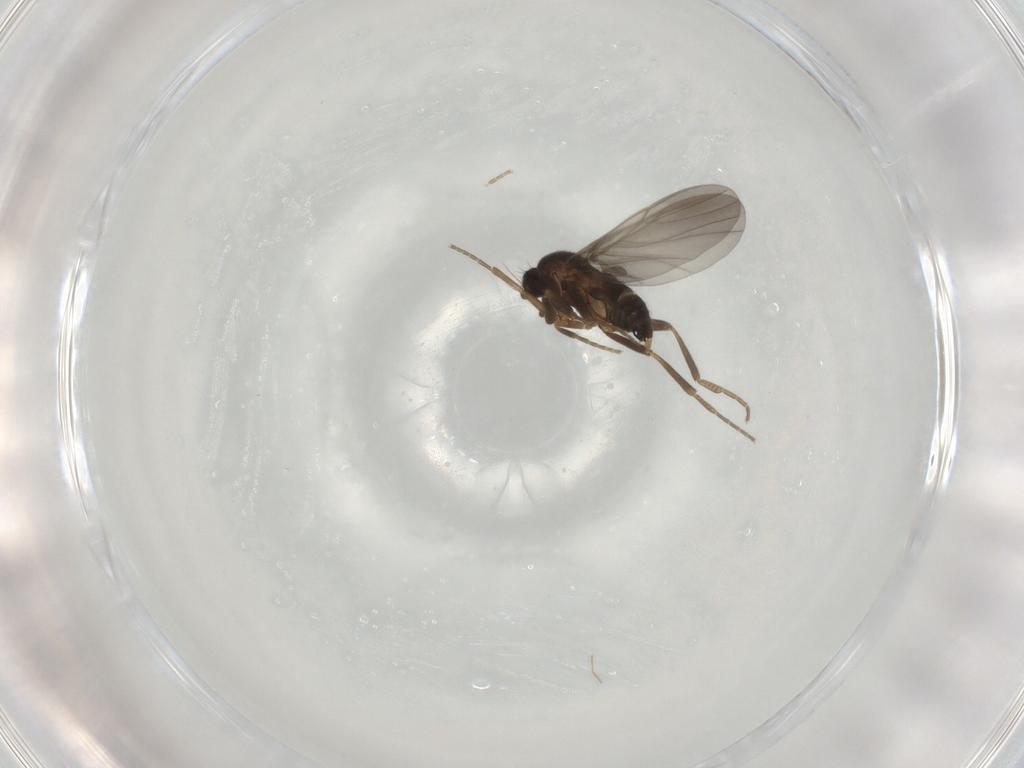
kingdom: Animalia
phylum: Arthropoda
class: Insecta
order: Diptera
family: Phoridae
